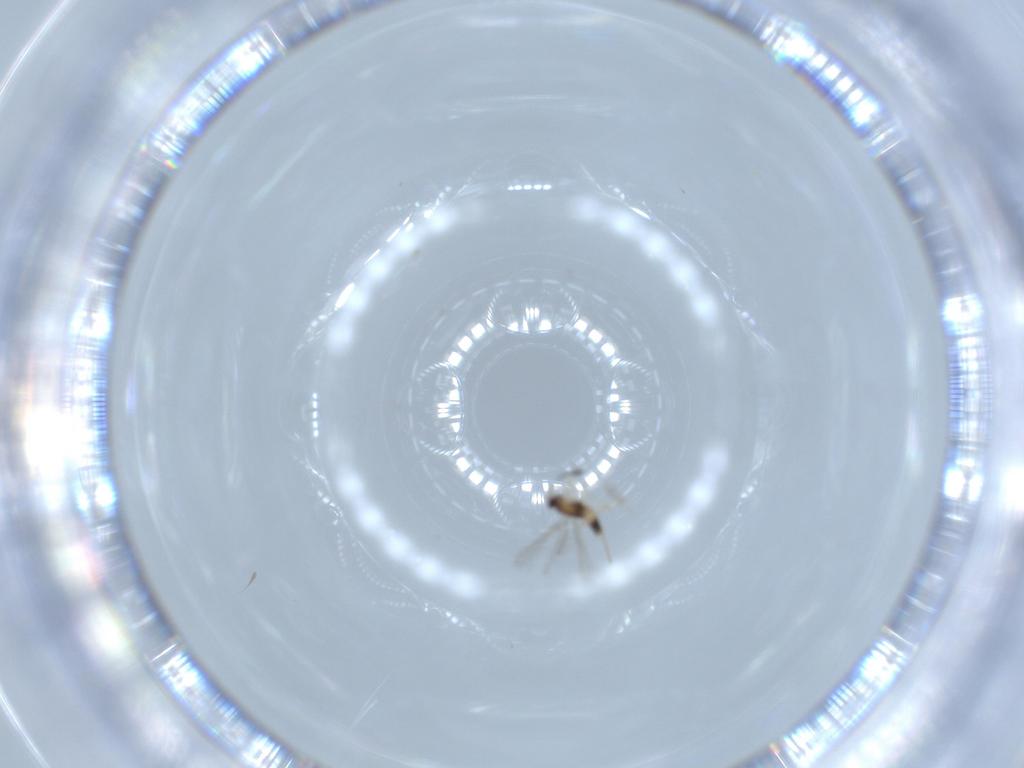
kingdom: Animalia
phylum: Arthropoda
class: Insecta
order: Hymenoptera
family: Mymaridae
